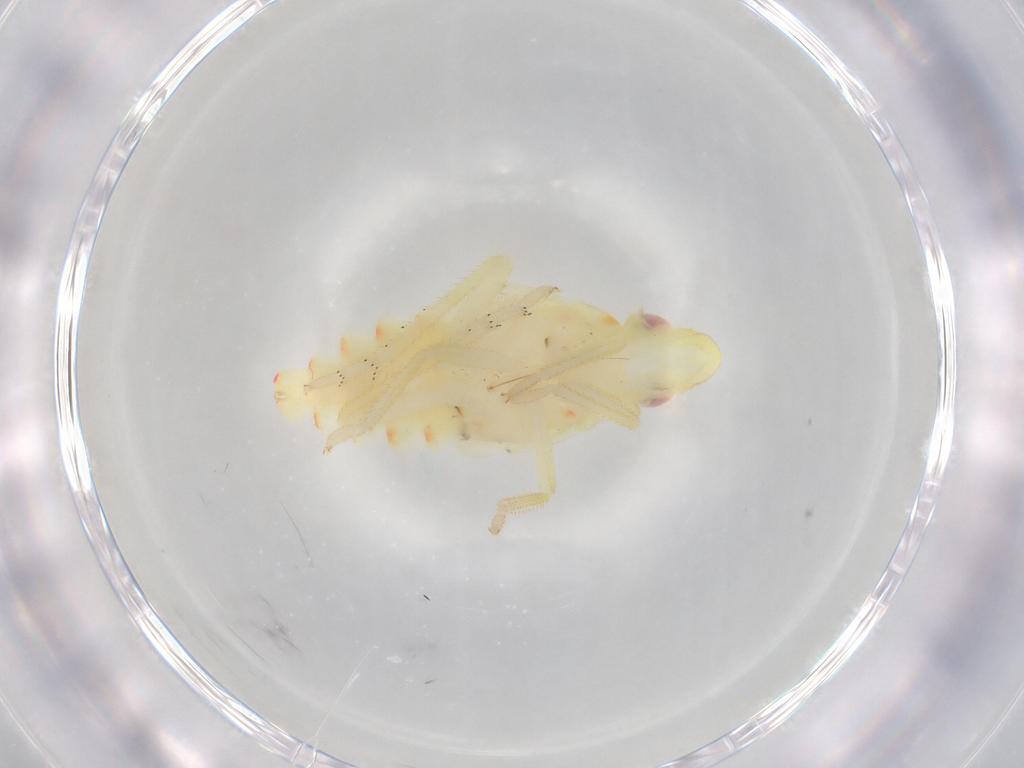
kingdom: Animalia
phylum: Arthropoda
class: Insecta
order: Hemiptera
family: Tropiduchidae
